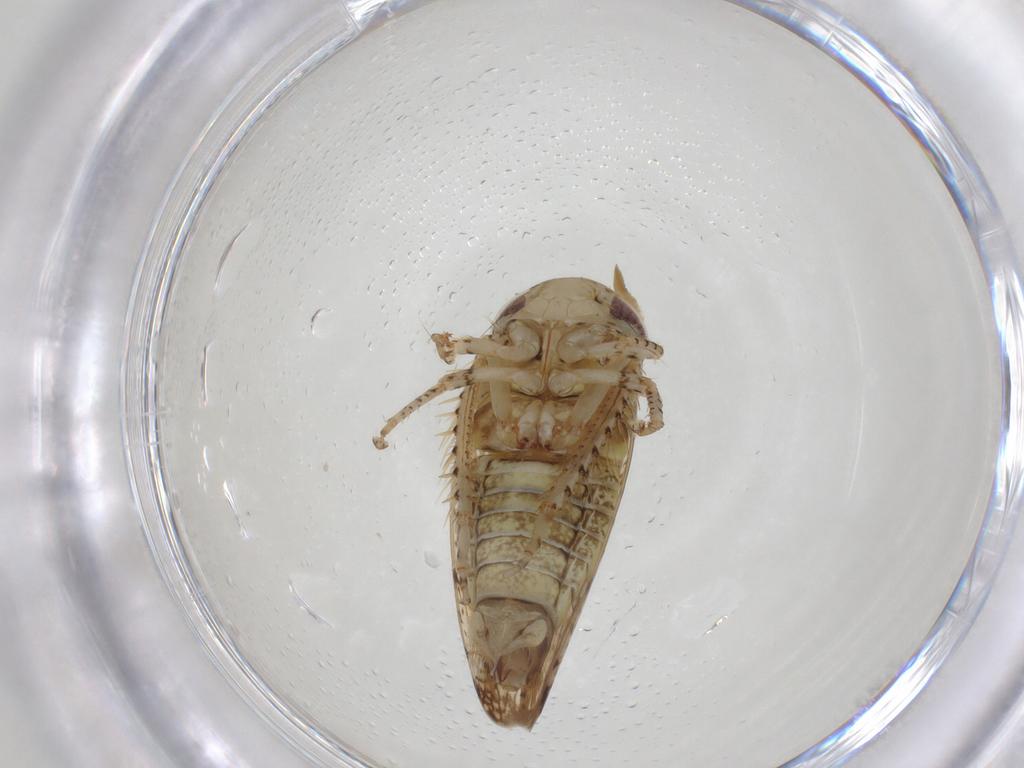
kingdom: Animalia
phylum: Arthropoda
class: Insecta
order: Hemiptera
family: Cicadellidae
